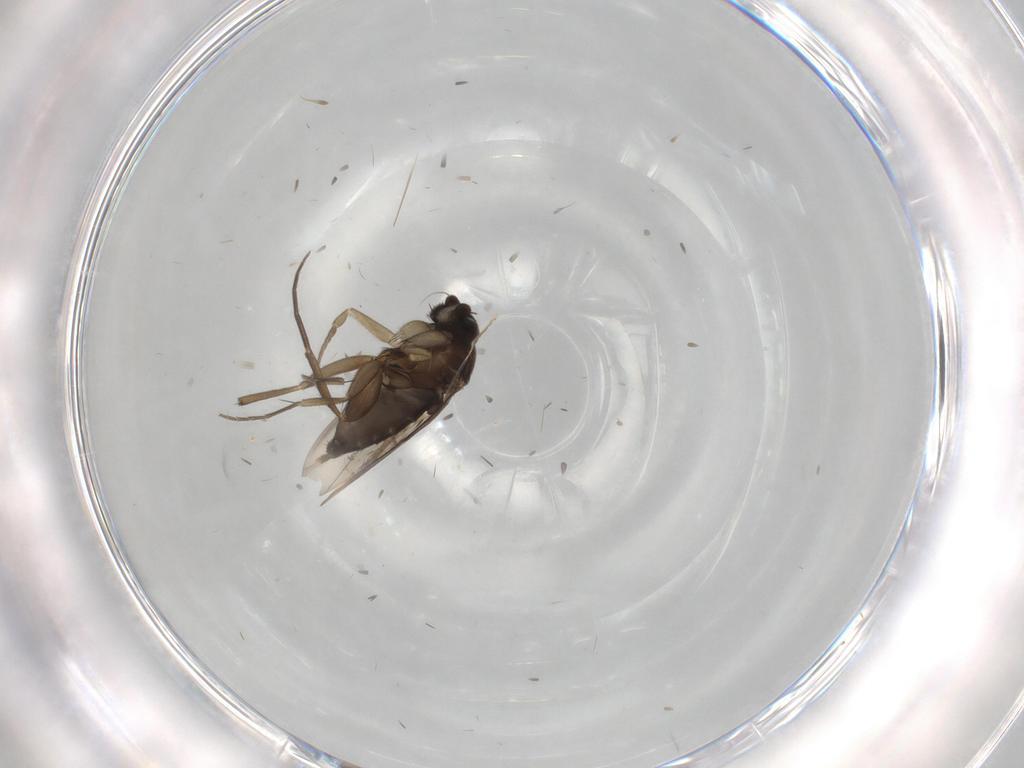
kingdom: Animalia
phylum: Arthropoda
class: Insecta
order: Diptera
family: Phoridae
